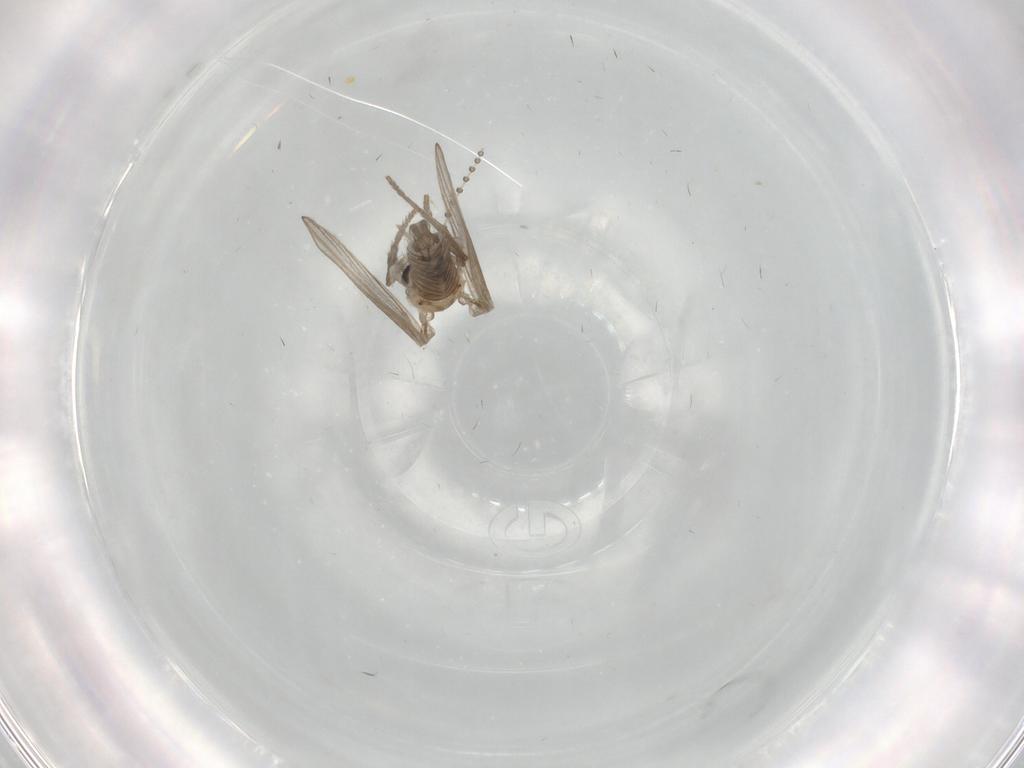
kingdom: Animalia
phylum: Arthropoda
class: Insecta
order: Diptera
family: Psychodidae
